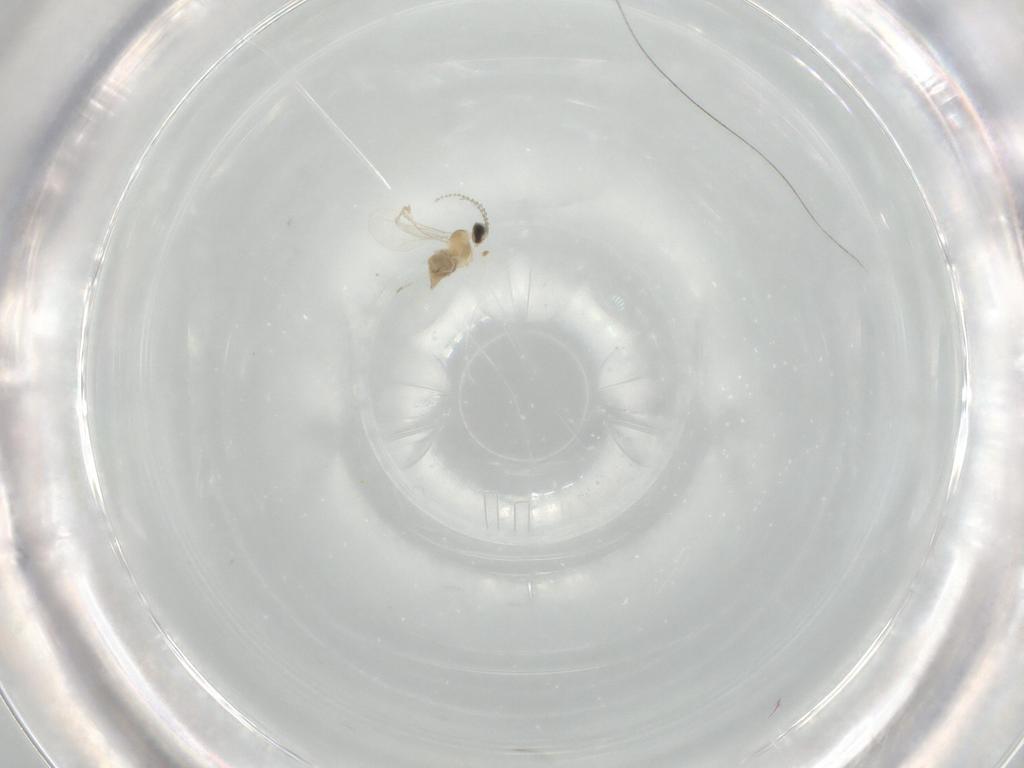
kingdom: Animalia
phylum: Arthropoda
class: Insecta
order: Diptera
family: Cecidomyiidae
